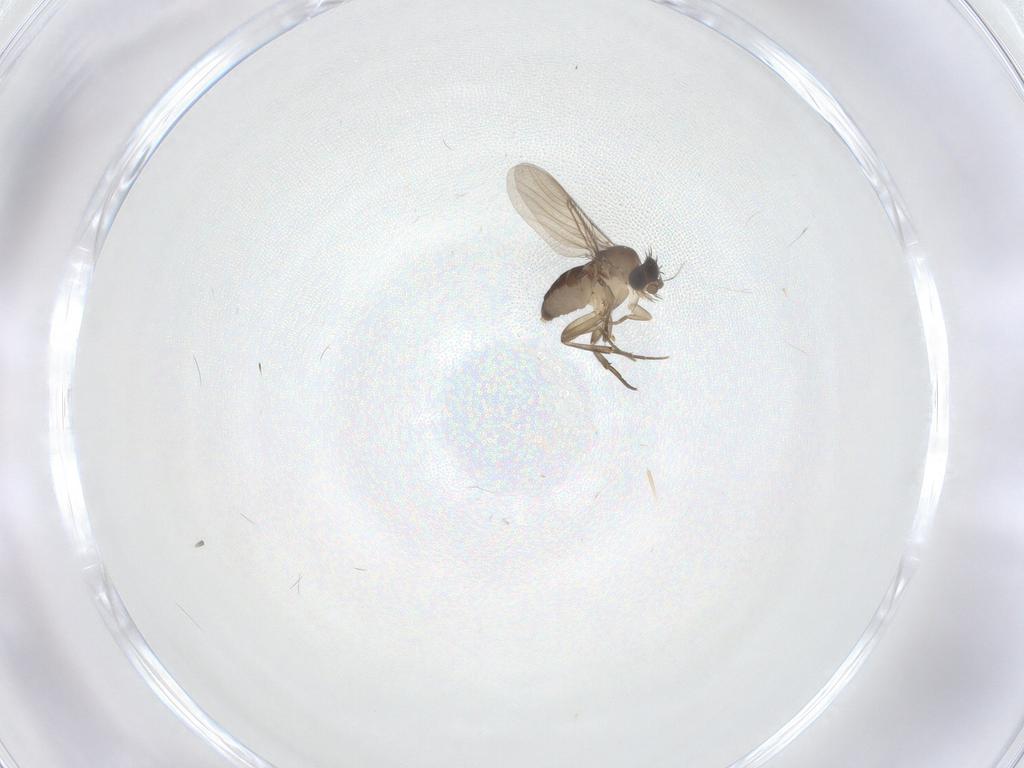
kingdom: Animalia
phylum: Arthropoda
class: Insecta
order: Diptera
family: Phoridae
